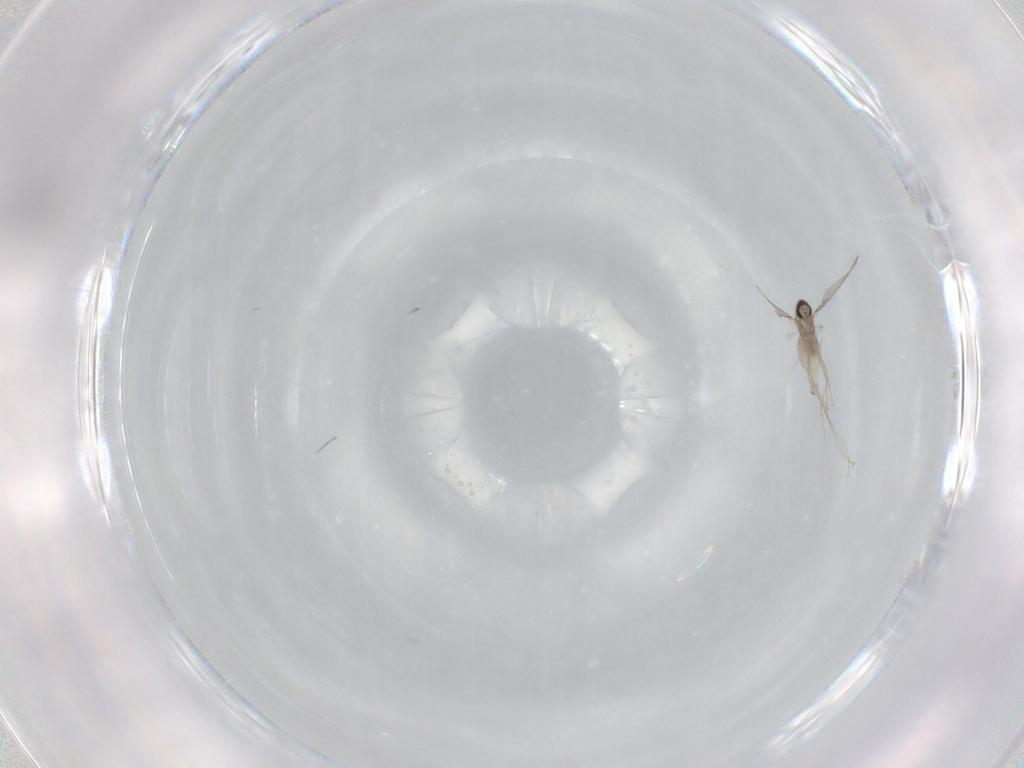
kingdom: Animalia
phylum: Arthropoda
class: Insecta
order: Diptera
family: Cecidomyiidae
